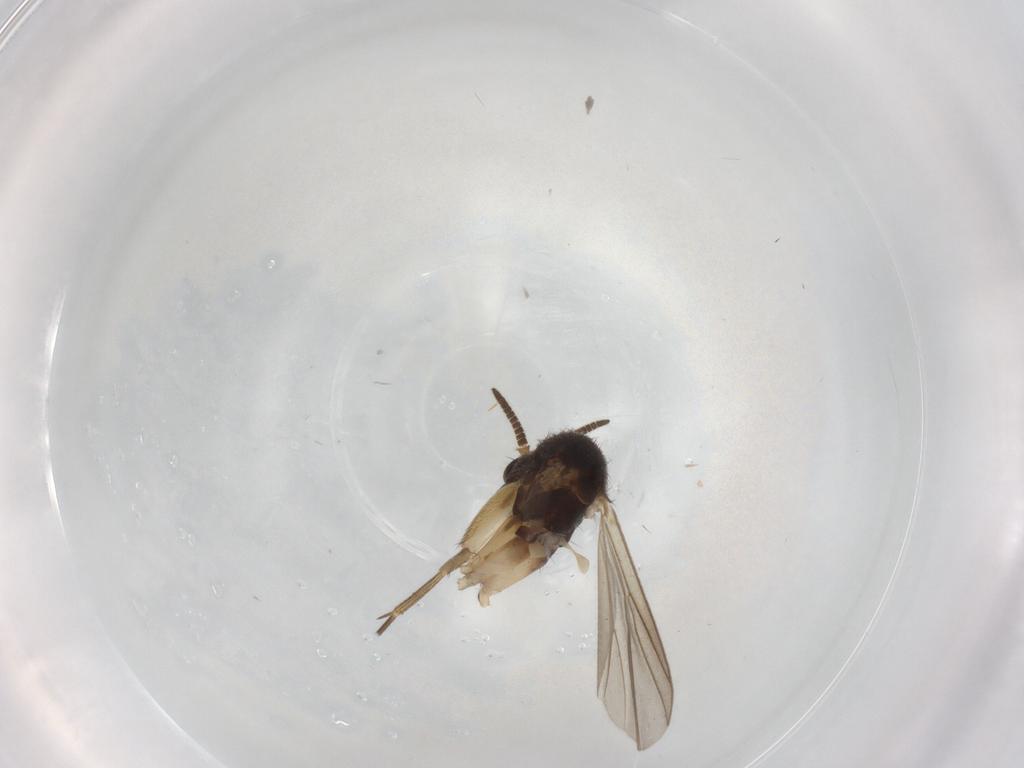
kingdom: Animalia
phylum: Arthropoda
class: Insecta
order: Diptera
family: Mycetophilidae
